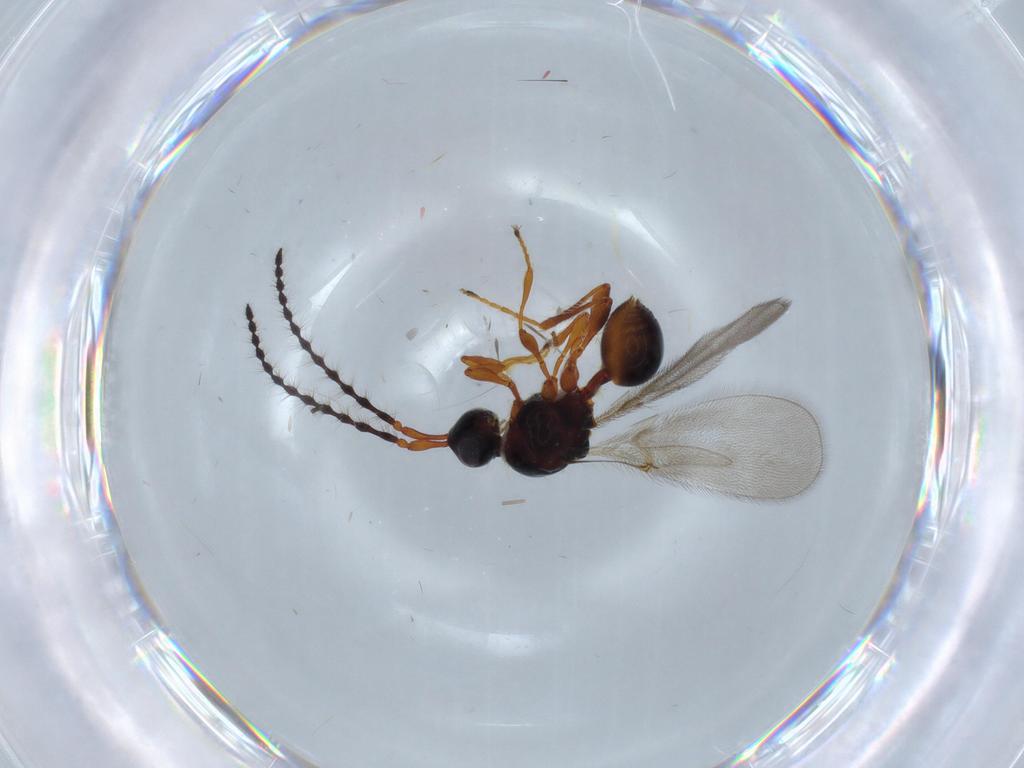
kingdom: Animalia
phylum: Arthropoda
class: Insecta
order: Hymenoptera
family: Diapriidae
